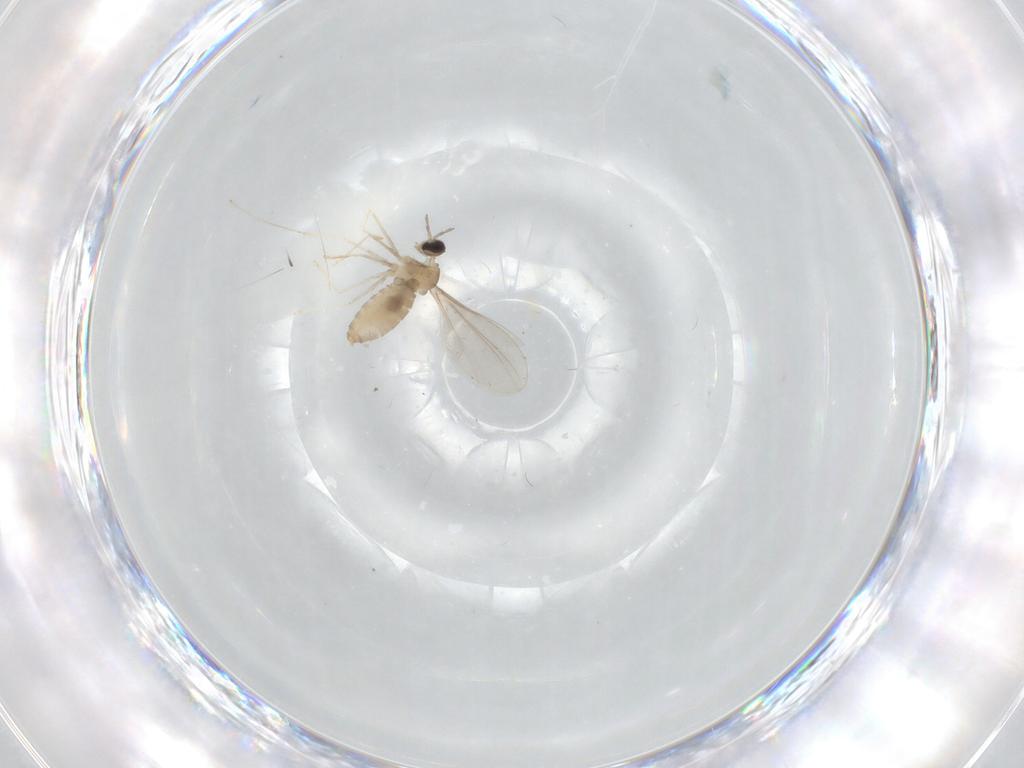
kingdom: Animalia
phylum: Arthropoda
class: Insecta
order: Diptera
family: Cecidomyiidae
